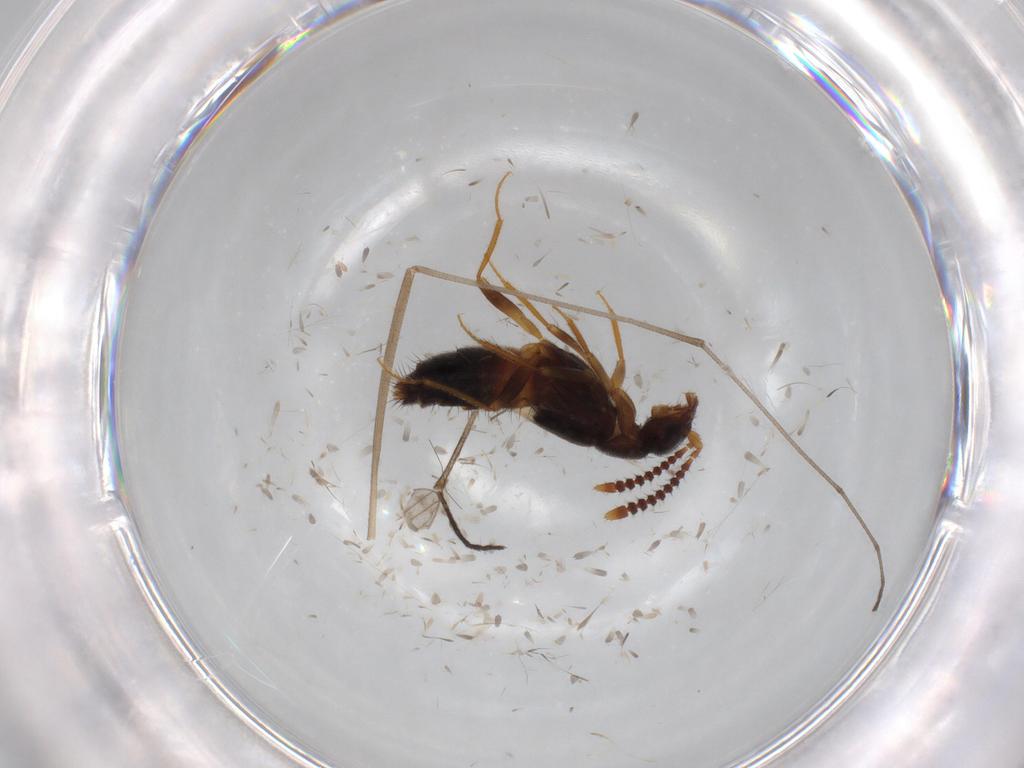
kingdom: Animalia
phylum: Arthropoda
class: Insecta
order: Coleoptera
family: Staphylinidae
